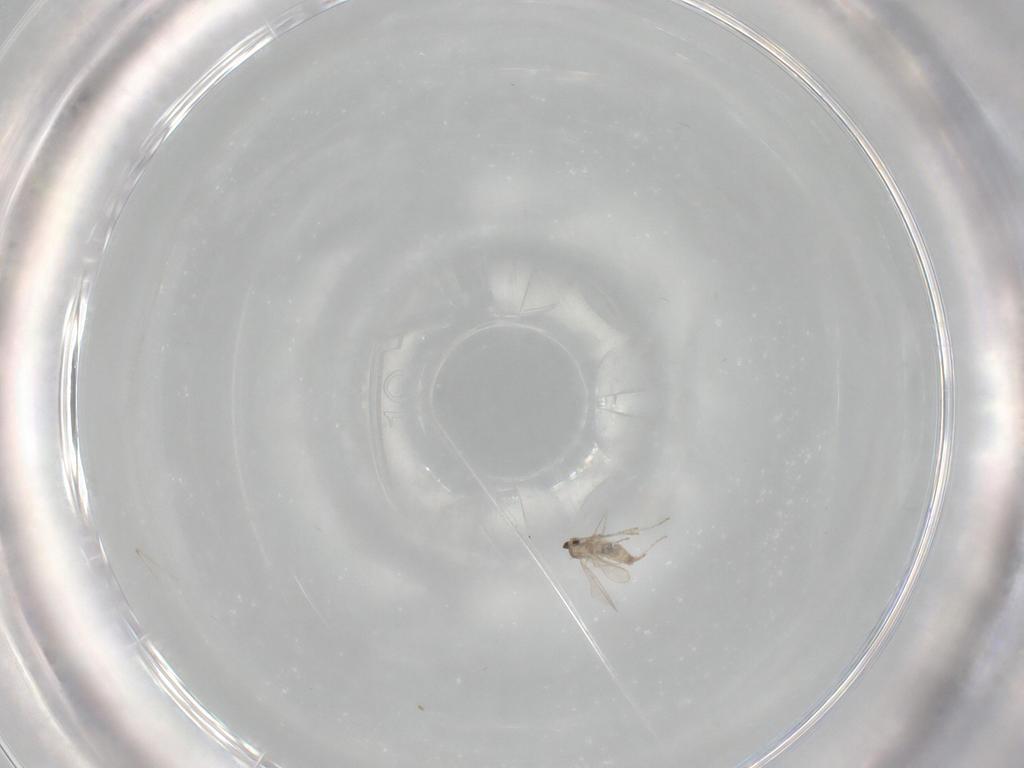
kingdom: Animalia
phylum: Arthropoda
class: Insecta
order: Diptera
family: Cecidomyiidae
